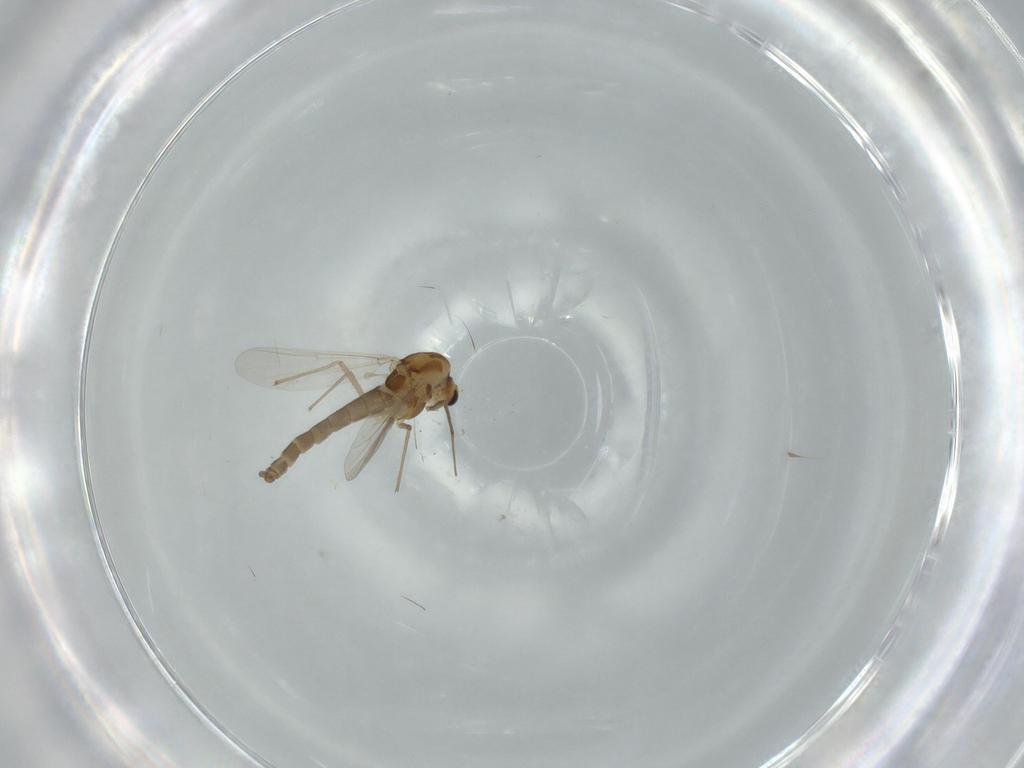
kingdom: Animalia
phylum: Arthropoda
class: Insecta
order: Diptera
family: Chironomidae
